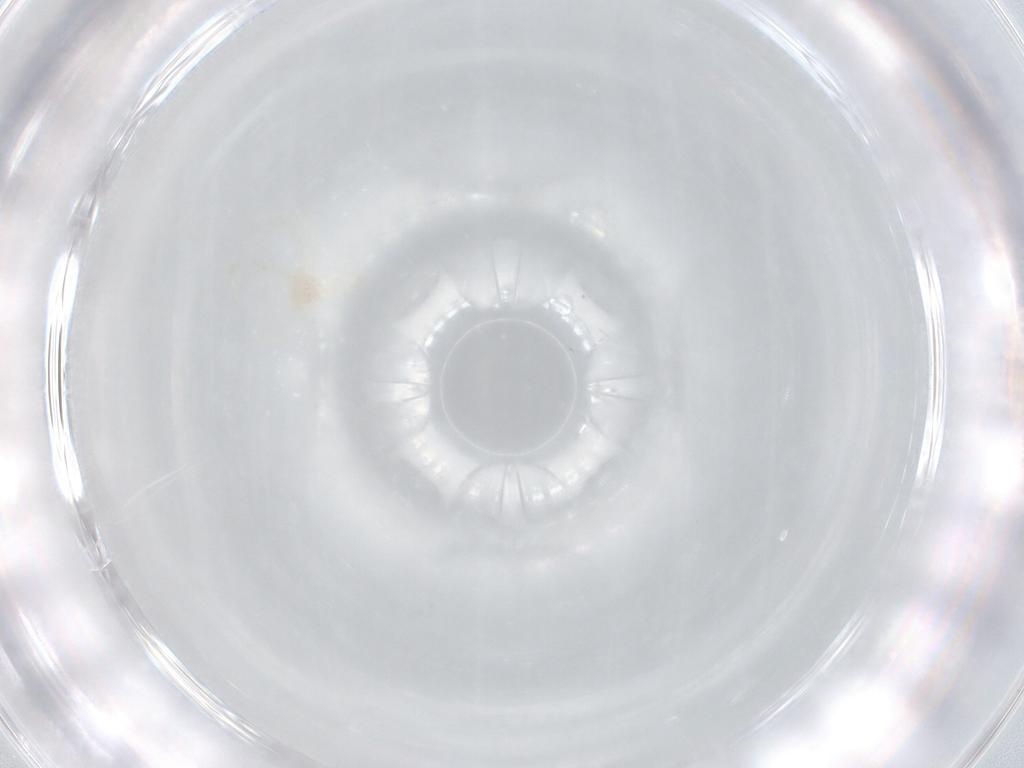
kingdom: Animalia
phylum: Arthropoda
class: Arachnida
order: Trombidiformes
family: Erythraeidae
